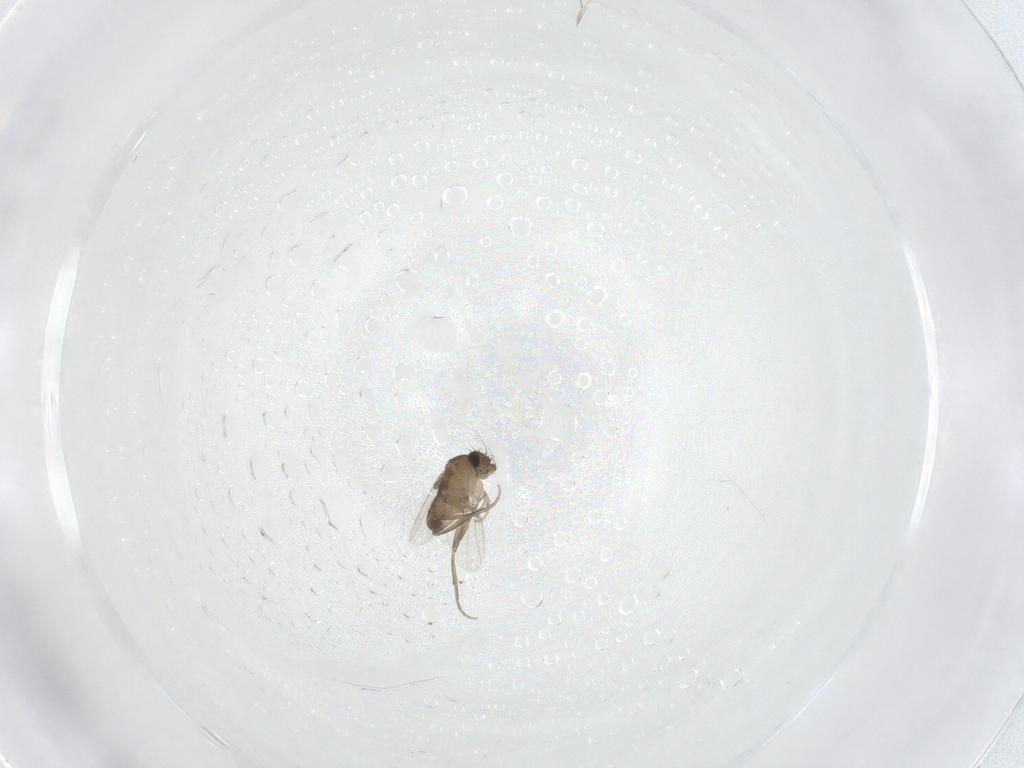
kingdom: Animalia
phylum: Arthropoda
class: Insecta
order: Diptera
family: Phoridae
